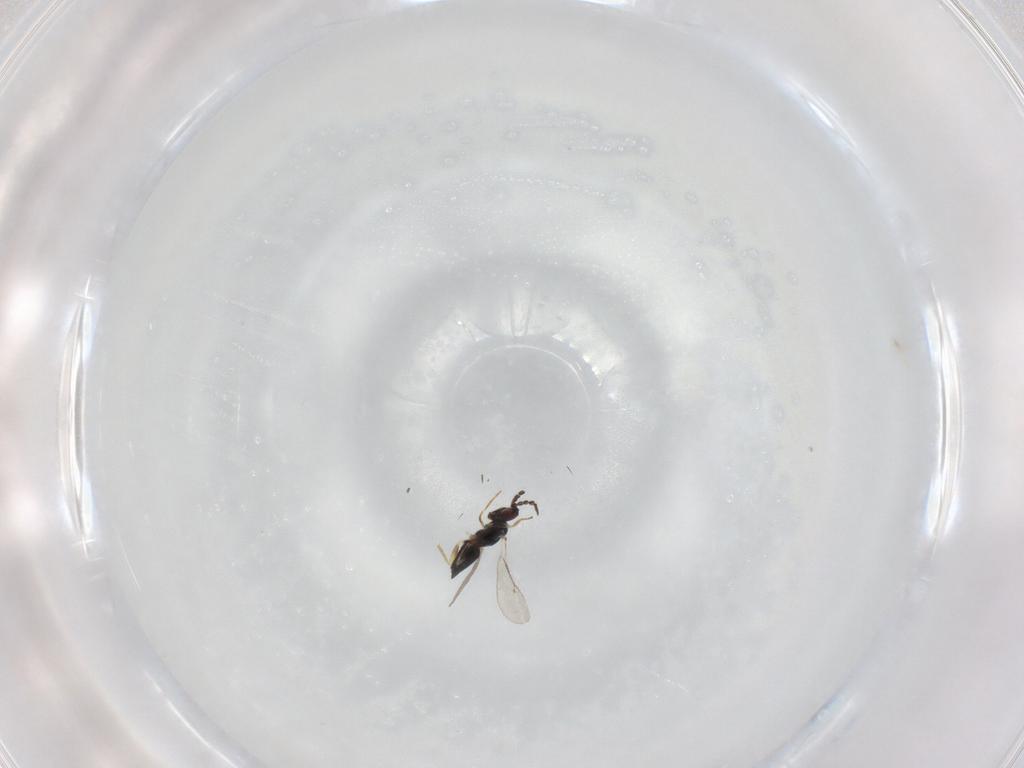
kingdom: Animalia
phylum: Arthropoda
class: Insecta
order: Hymenoptera
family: Eulophidae
